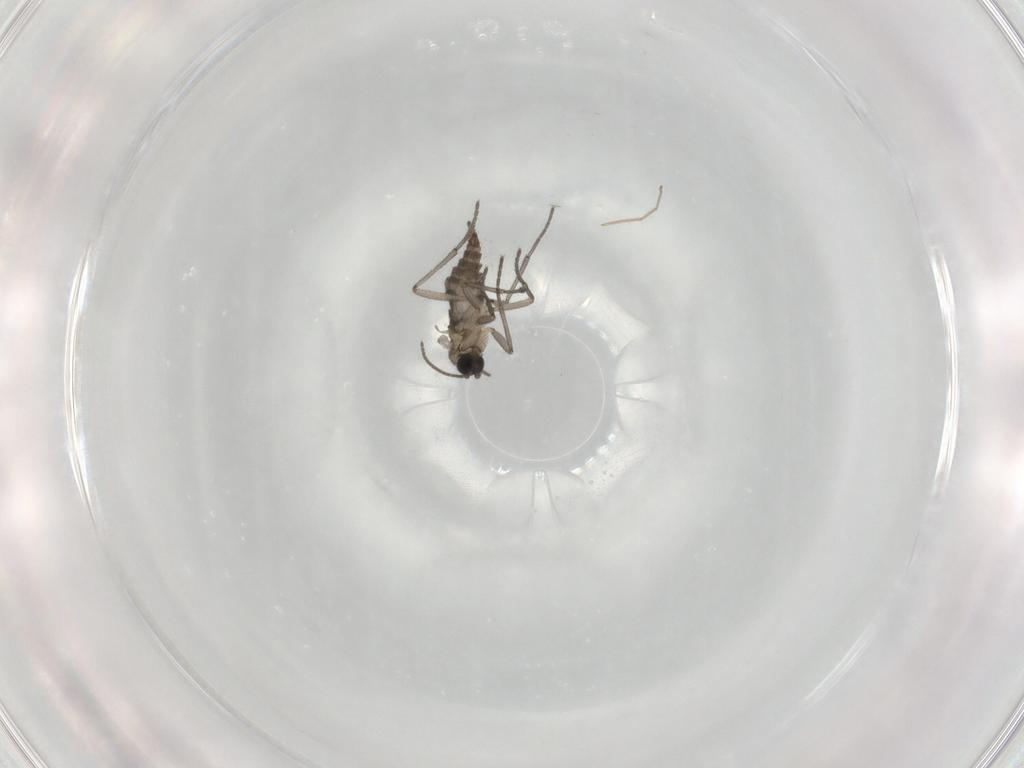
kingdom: Animalia
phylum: Arthropoda
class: Insecta
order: Diptera
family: Sciaridae
